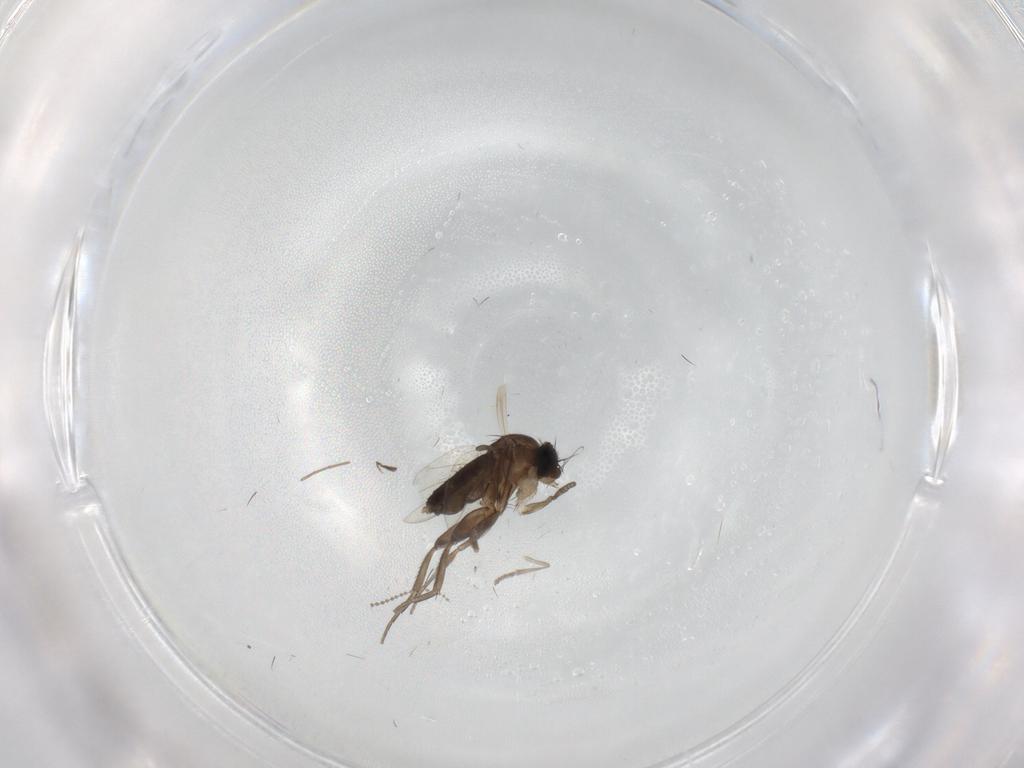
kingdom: Animalia
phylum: Arthropoda
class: Insecta
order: Diptera
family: Phoridae
